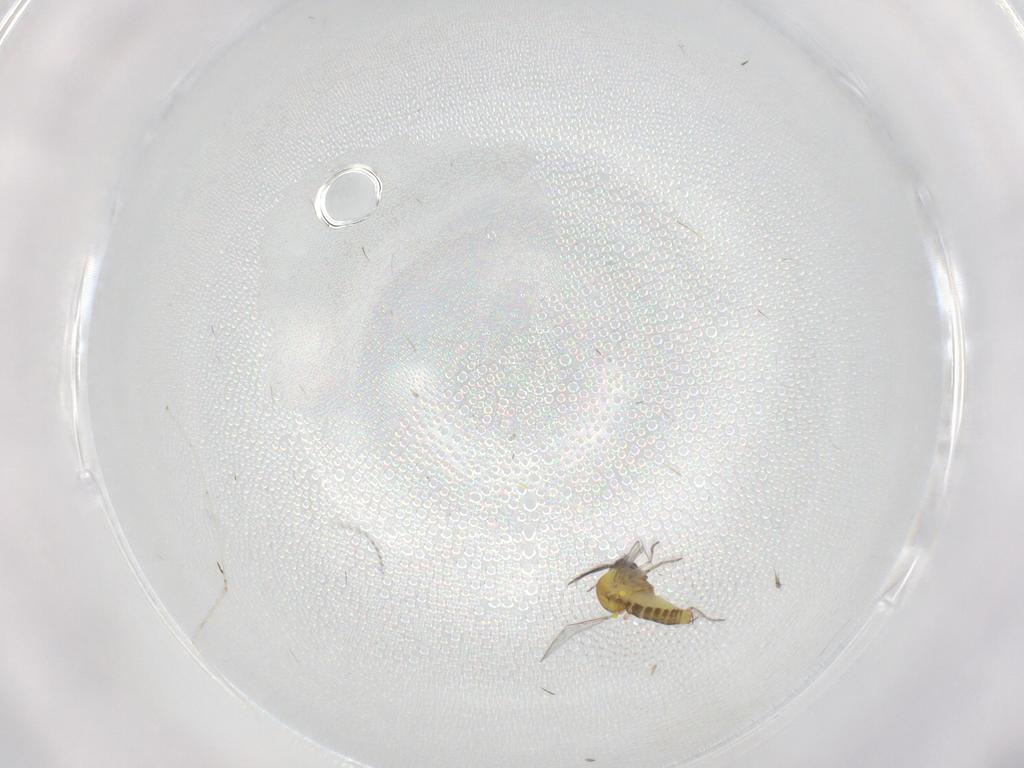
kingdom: Animalia
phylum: Arthropoda
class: Insecta
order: Diptera
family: Cecidomyiidae
